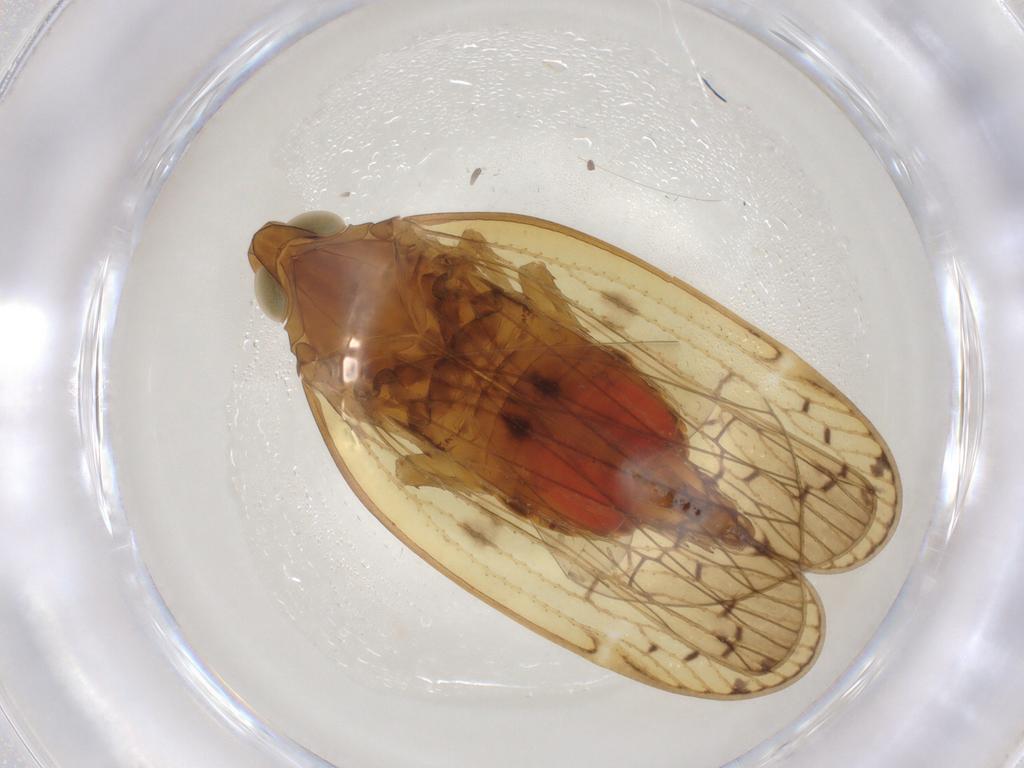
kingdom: Animalia
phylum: Arthropoda
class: Insecta
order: Hemiptera
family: Cixiidae
